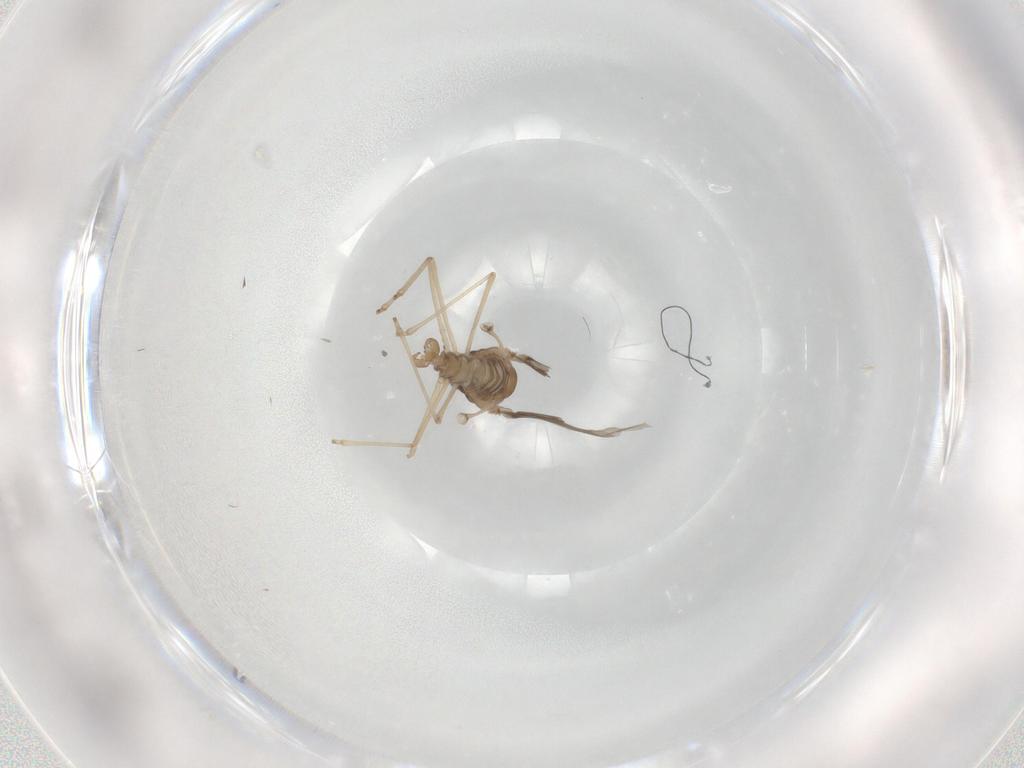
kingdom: Animalia
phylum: Arthropoda
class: Insecta
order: Diptera
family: Cecidomyiidae
